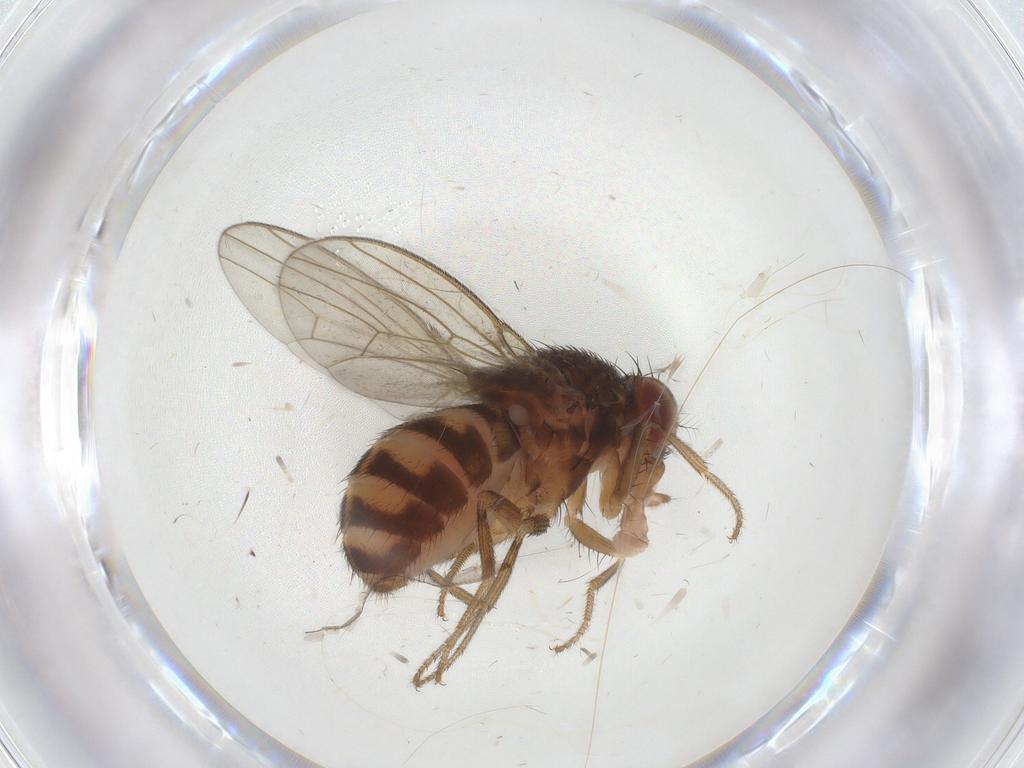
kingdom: Animalia
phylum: Arthropoda
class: Insecta
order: Diptera
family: Drosophilidae
